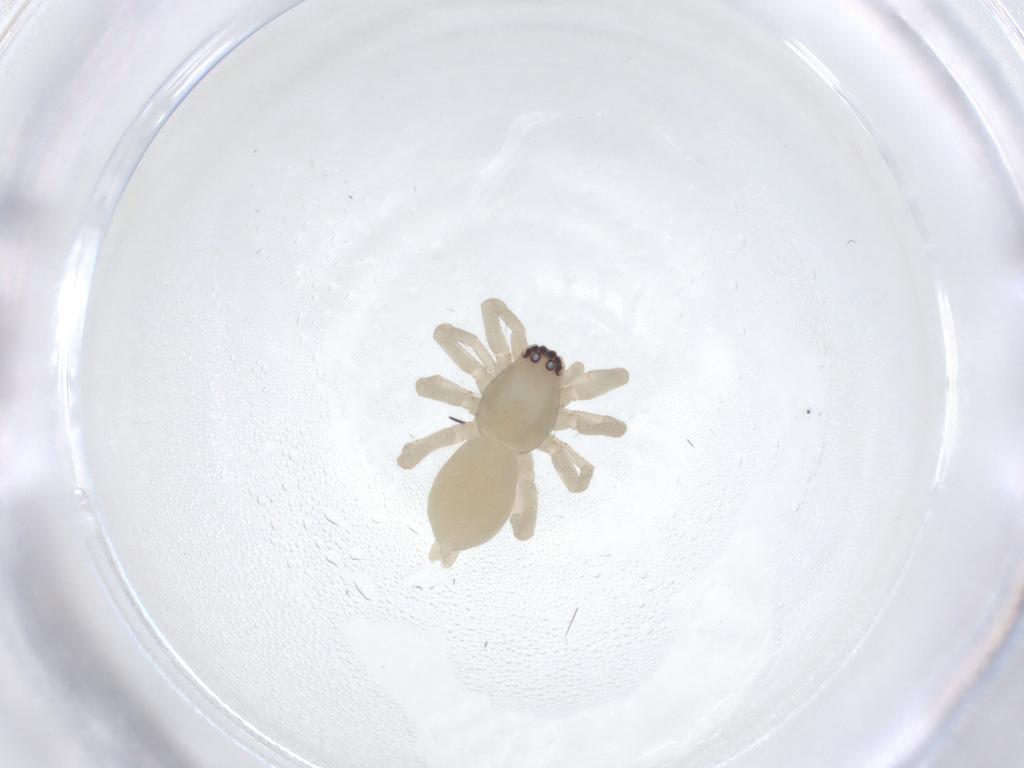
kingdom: Animalia
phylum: Arthropoda
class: Arachnida
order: Araneae
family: Clubionidae
